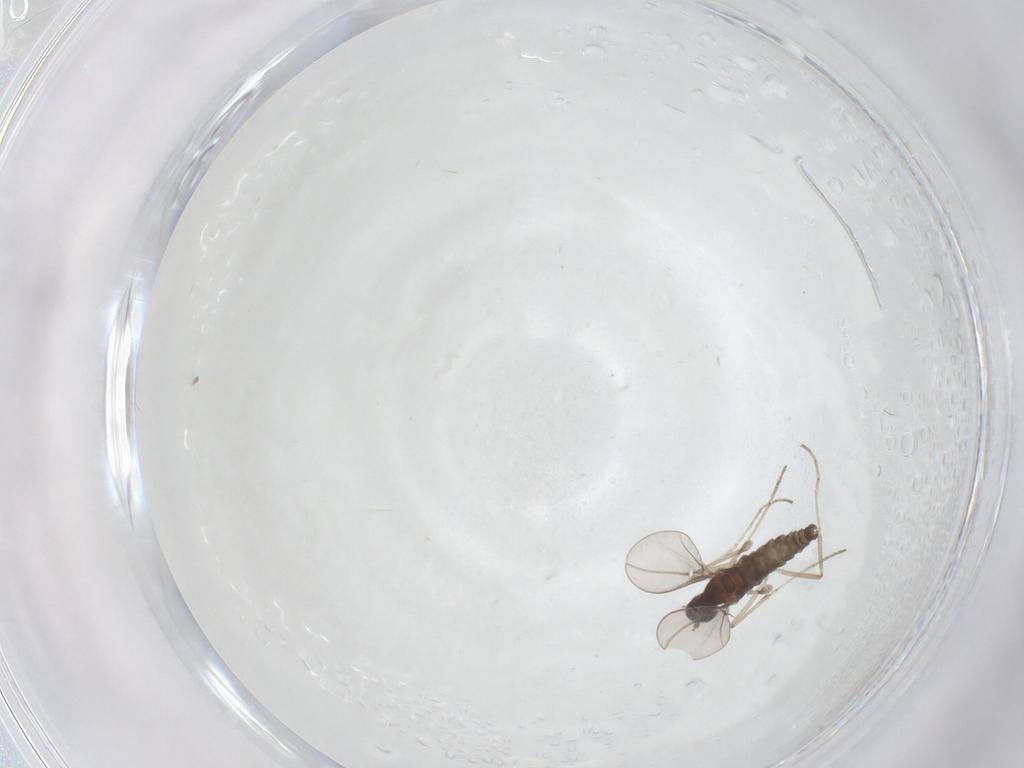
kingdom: Animalia
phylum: Arthropoda
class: Insecta
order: Diptera
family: Cecidomyiidae
